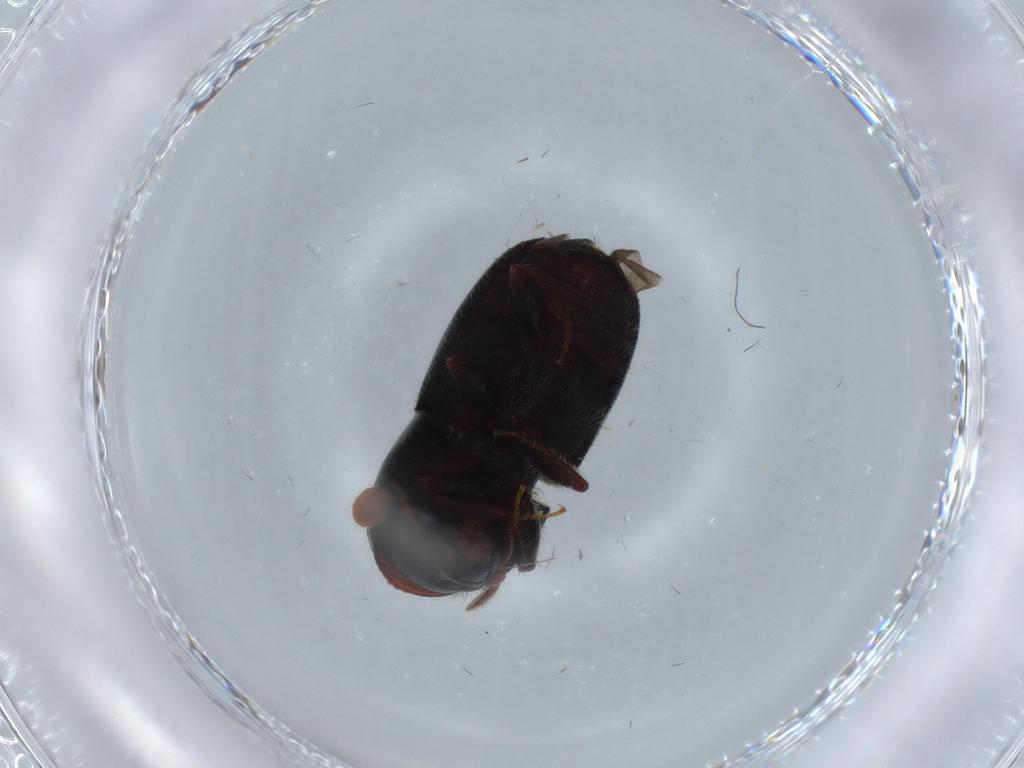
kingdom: Animalia
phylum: Arthropoda
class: Insecta
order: Coleoptera
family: Curculionidae
